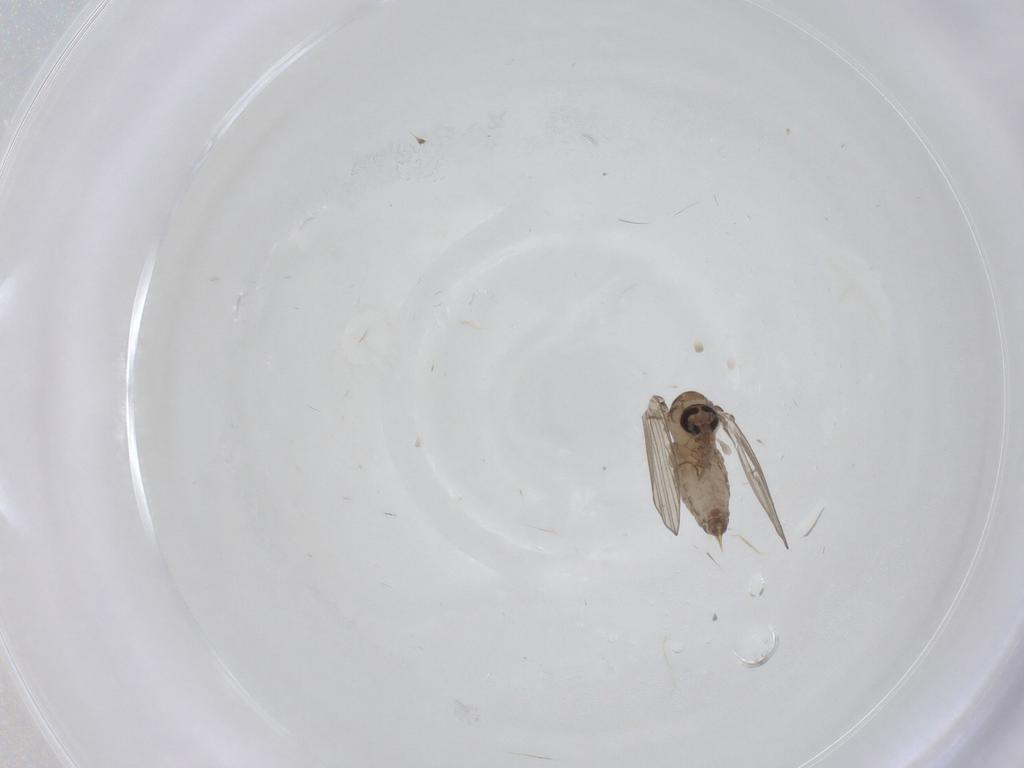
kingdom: Animalia
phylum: Arthropoda
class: Insecta
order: Diptera
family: Psychodidae
